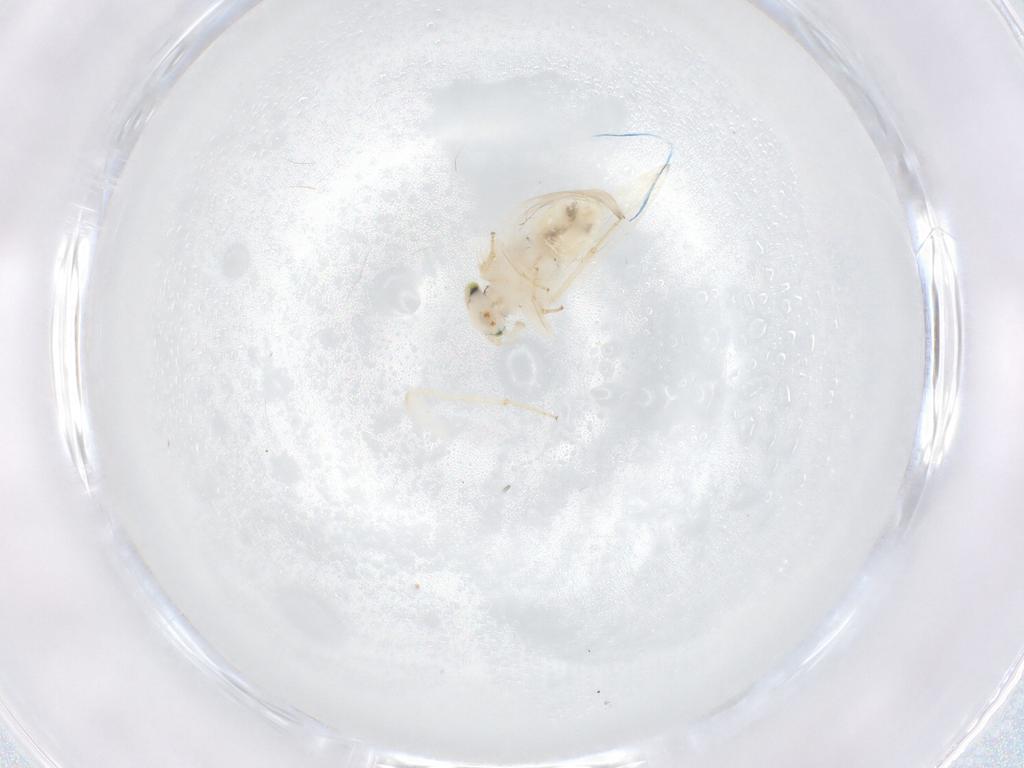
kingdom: Animalia
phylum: Arthropoda
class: Insecta
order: Psocodea
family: Lepidopsocidae
